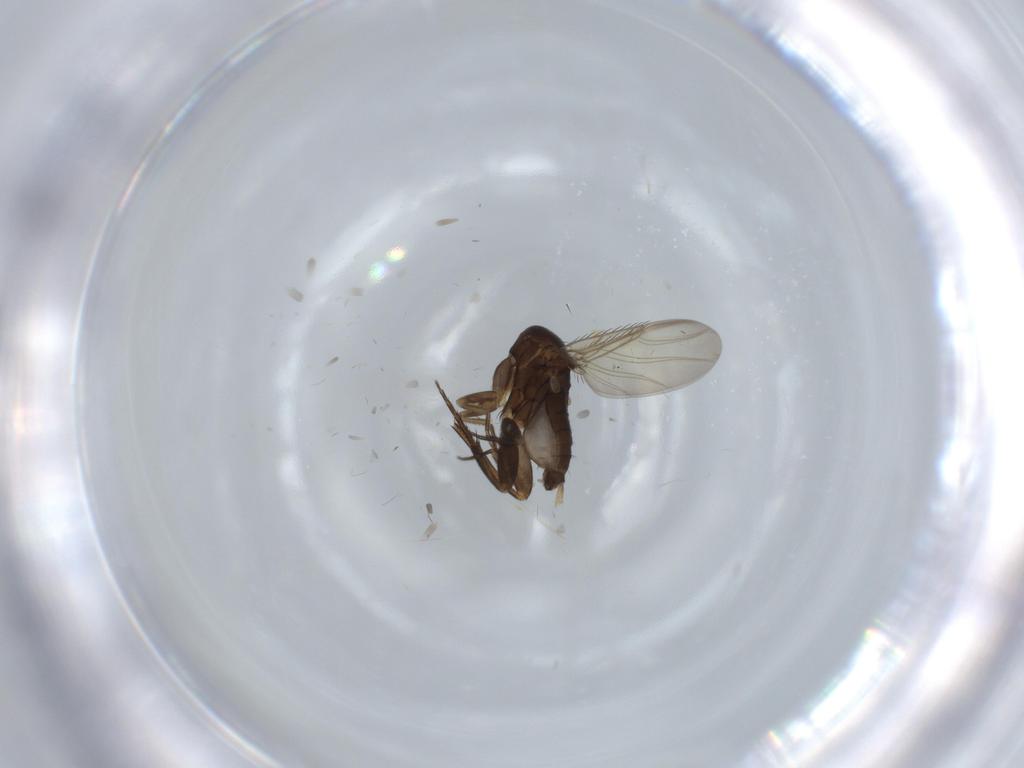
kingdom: Animalia
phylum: Arthropoda
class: Insecta
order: Diptera
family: Phoridae
